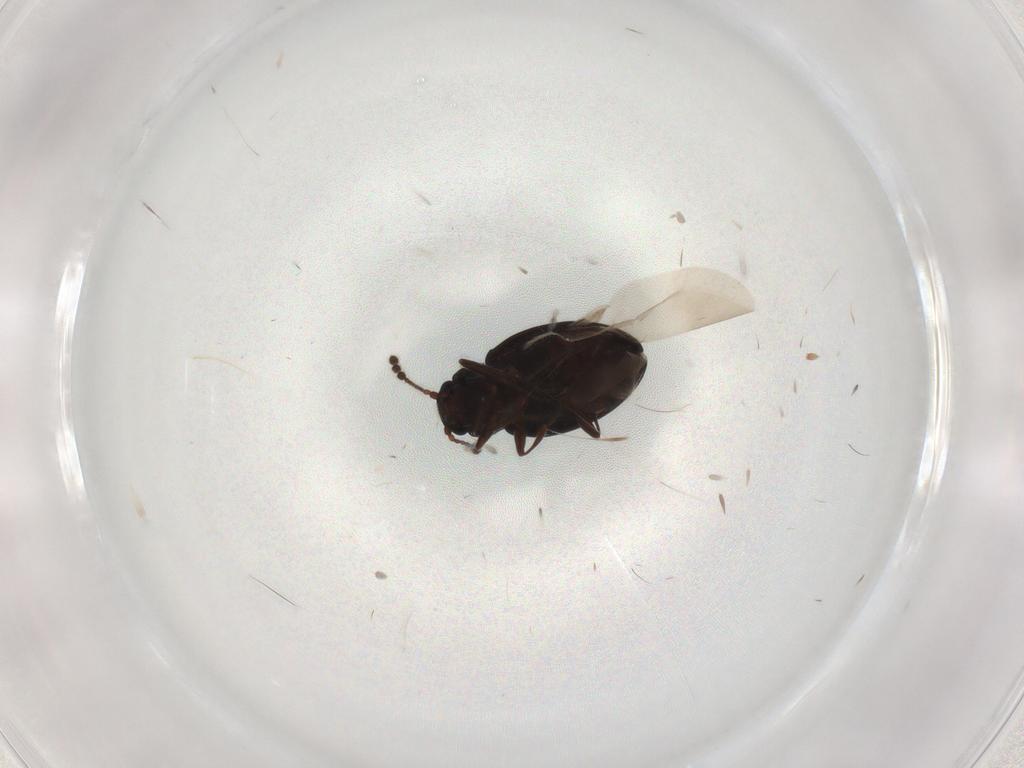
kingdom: Animalia
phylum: Arthropoda
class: Insecta
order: Coleoptera
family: Erotylidae
